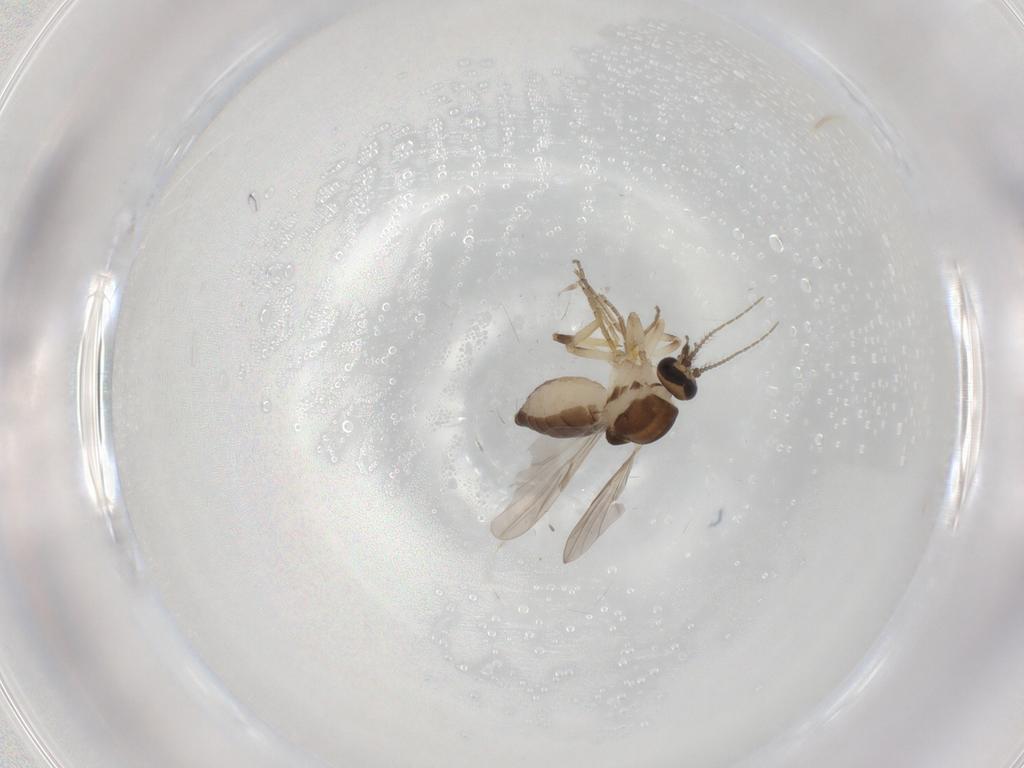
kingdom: Animalia
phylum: Arthropoda
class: Insecta
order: Diptera
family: Ceratopogonidae
